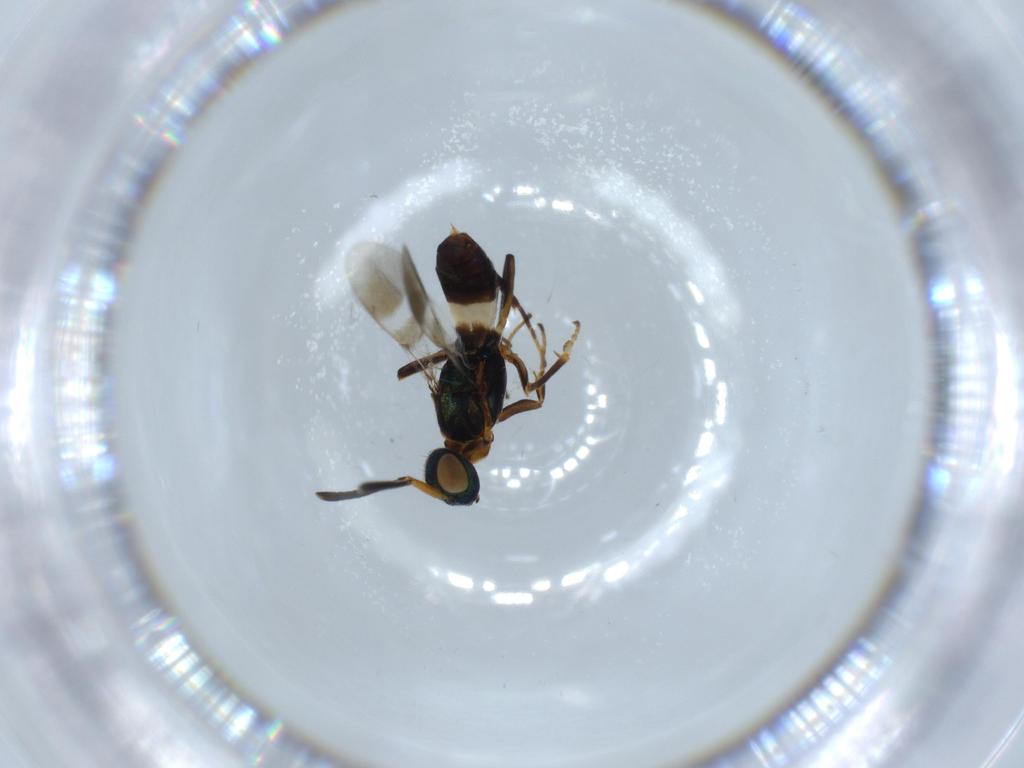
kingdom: Animalia
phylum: Arthropoda
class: Insecta
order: Hymenoptera
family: Eupelmidae
